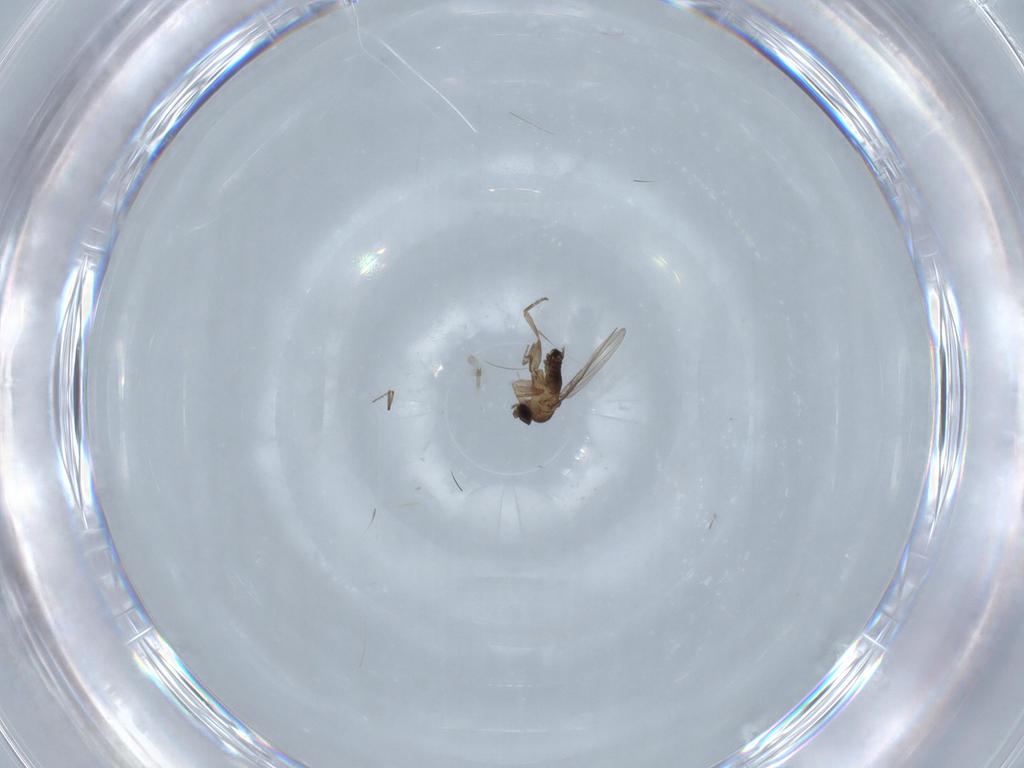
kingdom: Animalia
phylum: Arthropoda
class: Insecta
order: Diptera
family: Ceratopogonidae
